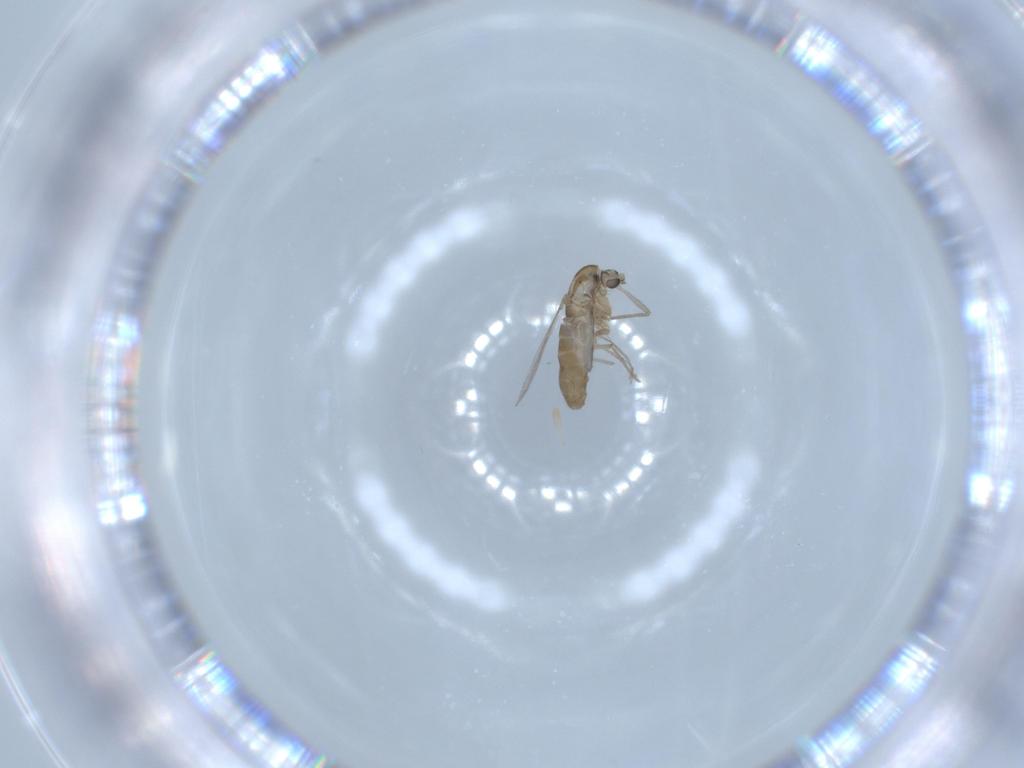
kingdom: Animalia
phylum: Arthropoda
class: Insecta
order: Diptera
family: Chironomidae
